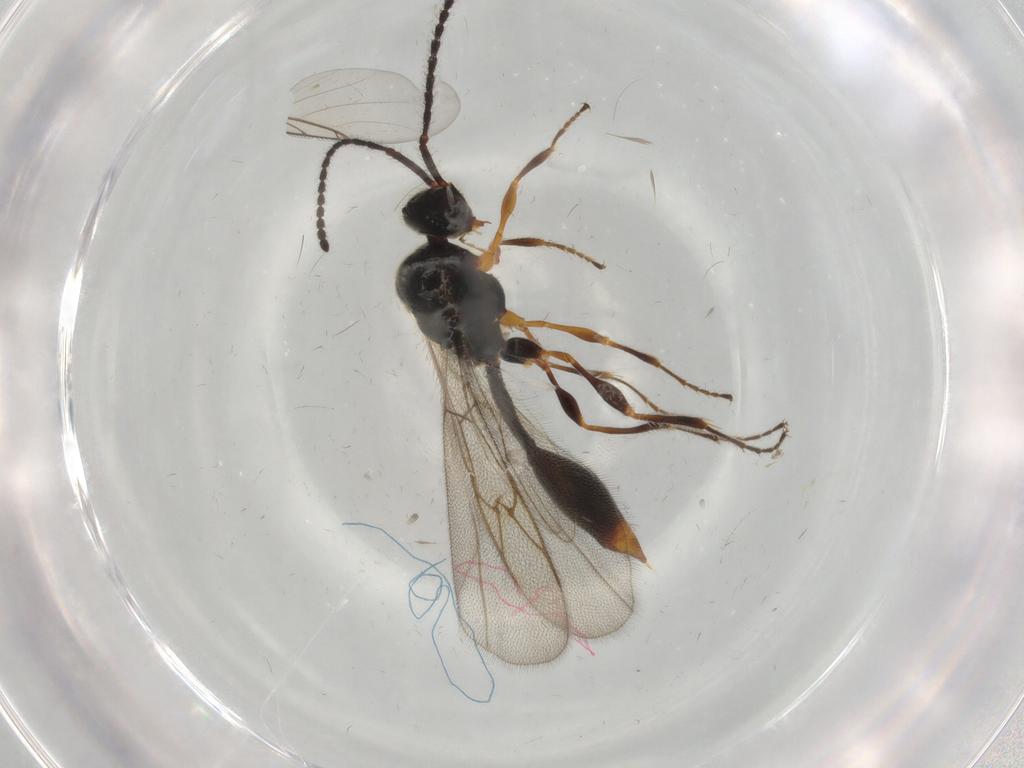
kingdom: Animalia
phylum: Arthropoda
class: Insecta
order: Hymenoptera
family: Diapriidae
